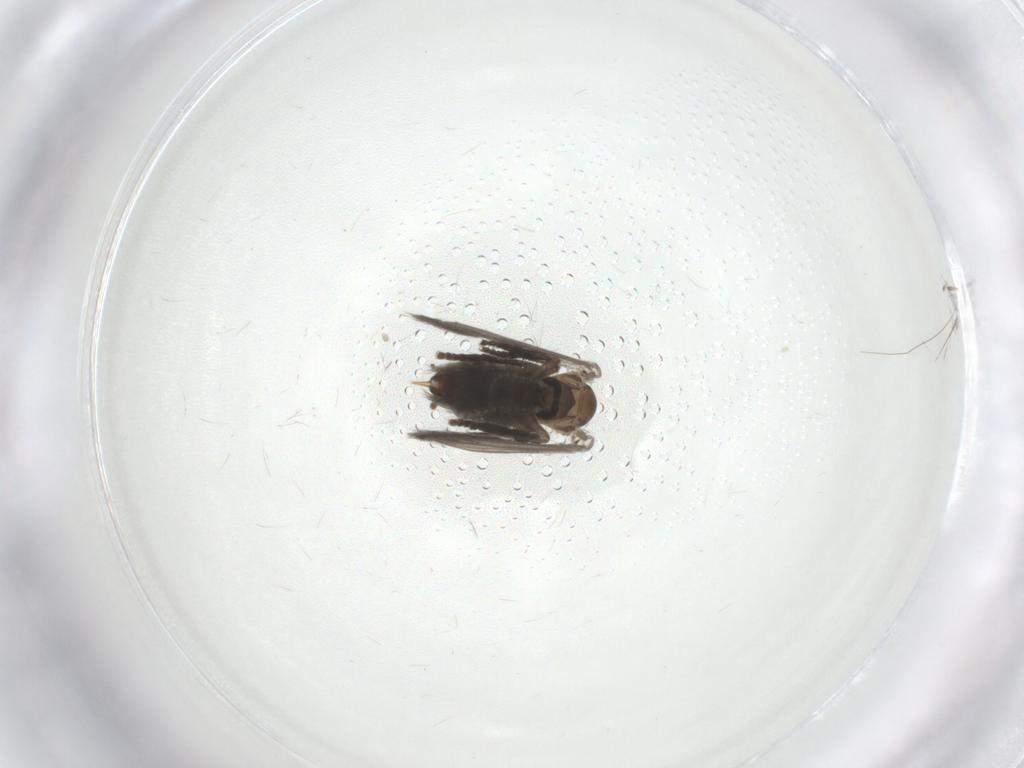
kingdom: Animalia
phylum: Arthropoda
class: Insecta
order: Diptera
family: Psychodidae
